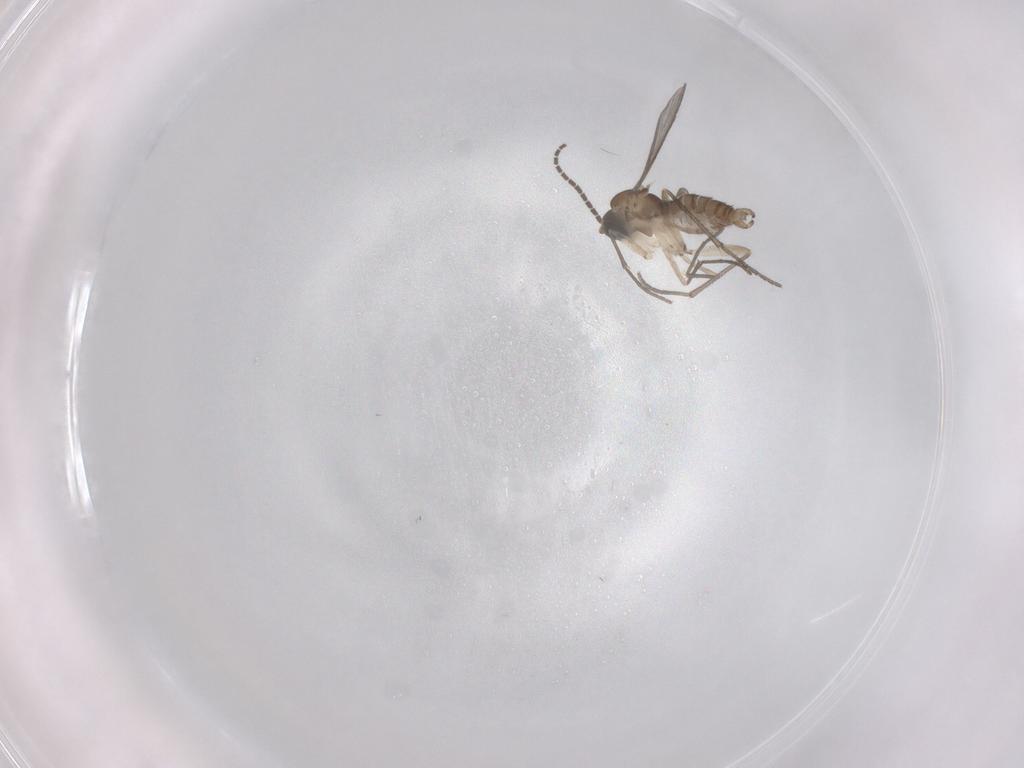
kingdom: Animalia
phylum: Arthropoda
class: Insecta
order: Diptera
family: Sciaridae
